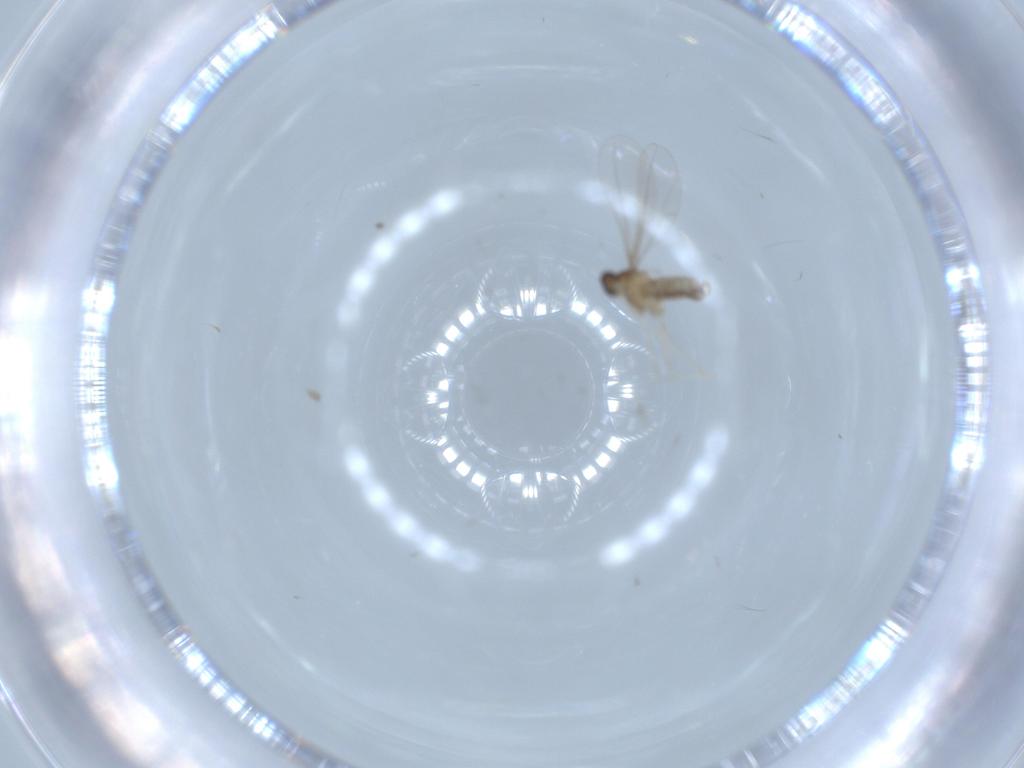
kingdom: Animalia
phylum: Arthropoda
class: Insecta
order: Diptera
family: Cecidomyiidae
